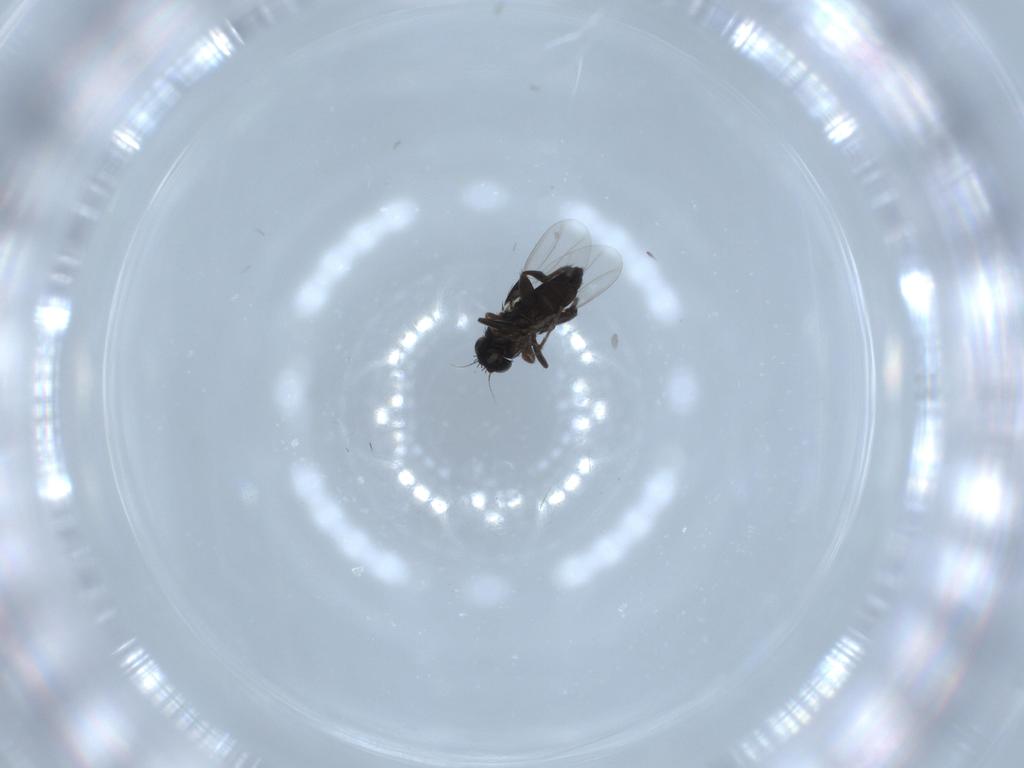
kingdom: Animalia
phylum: Arthropoda
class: Insecta
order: Diptera
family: Phoridae
